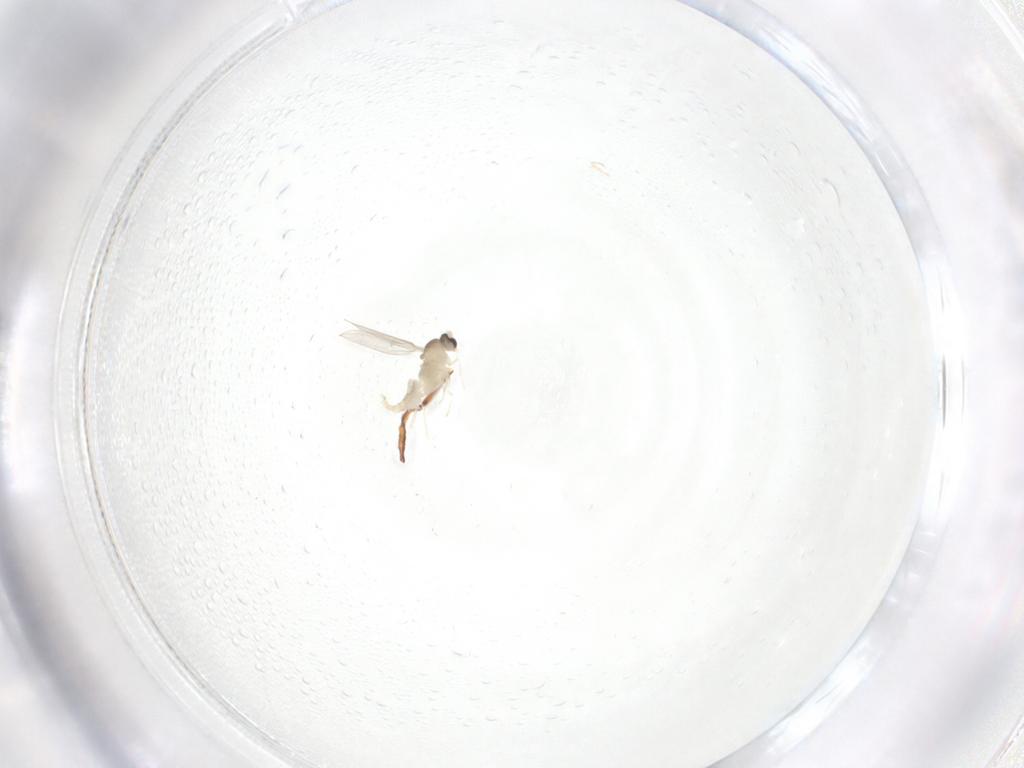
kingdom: Animalia
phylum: Arthropoda
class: Insecta
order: Diptera
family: Cecidomyiidae
